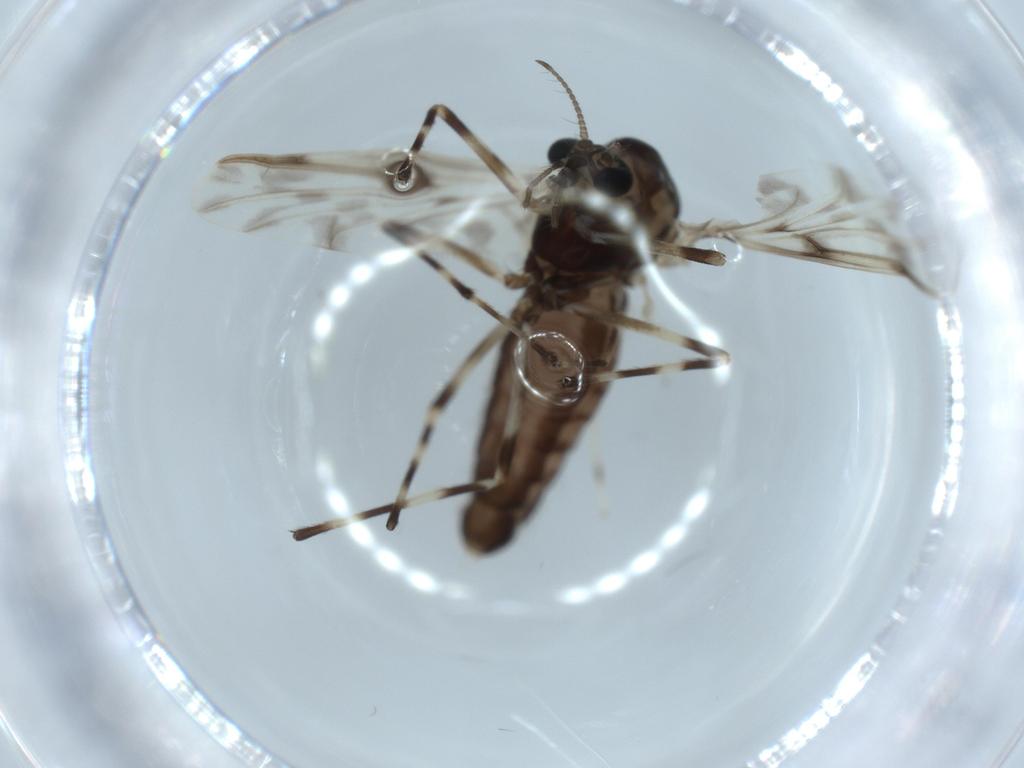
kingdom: Animalia
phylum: Arthropoda
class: Insecta
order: Diptera
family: Chironomidae
